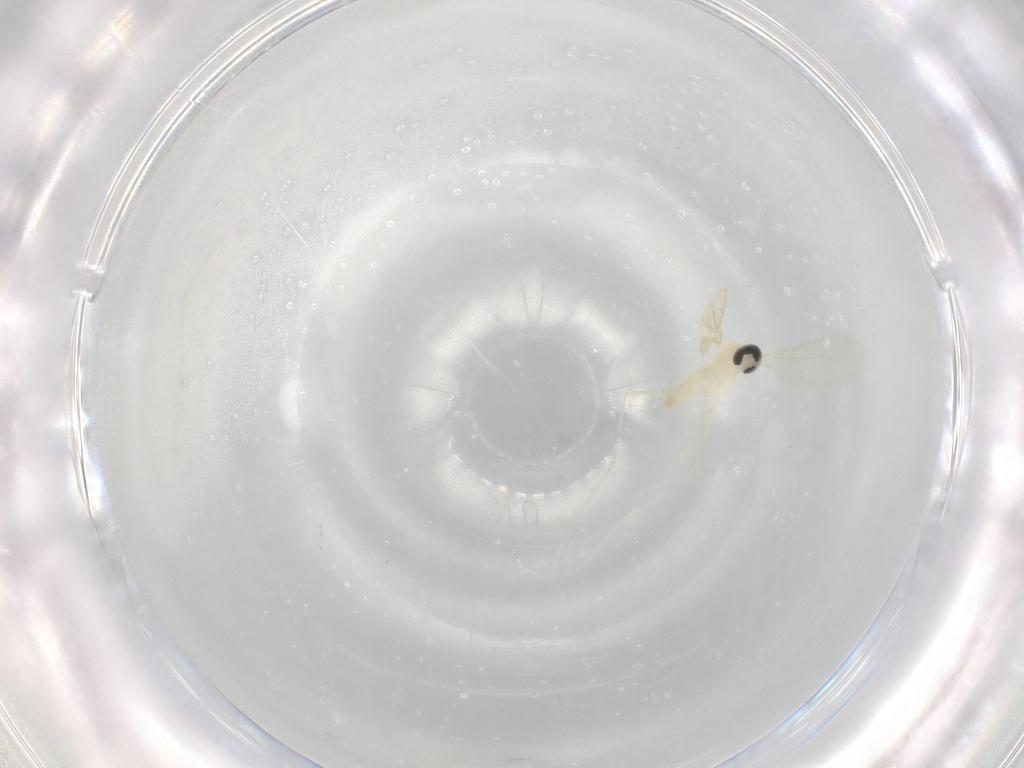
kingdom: Animalia
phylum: Arthropoda
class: Insecta
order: Diptera
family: Cecidomyiidae
